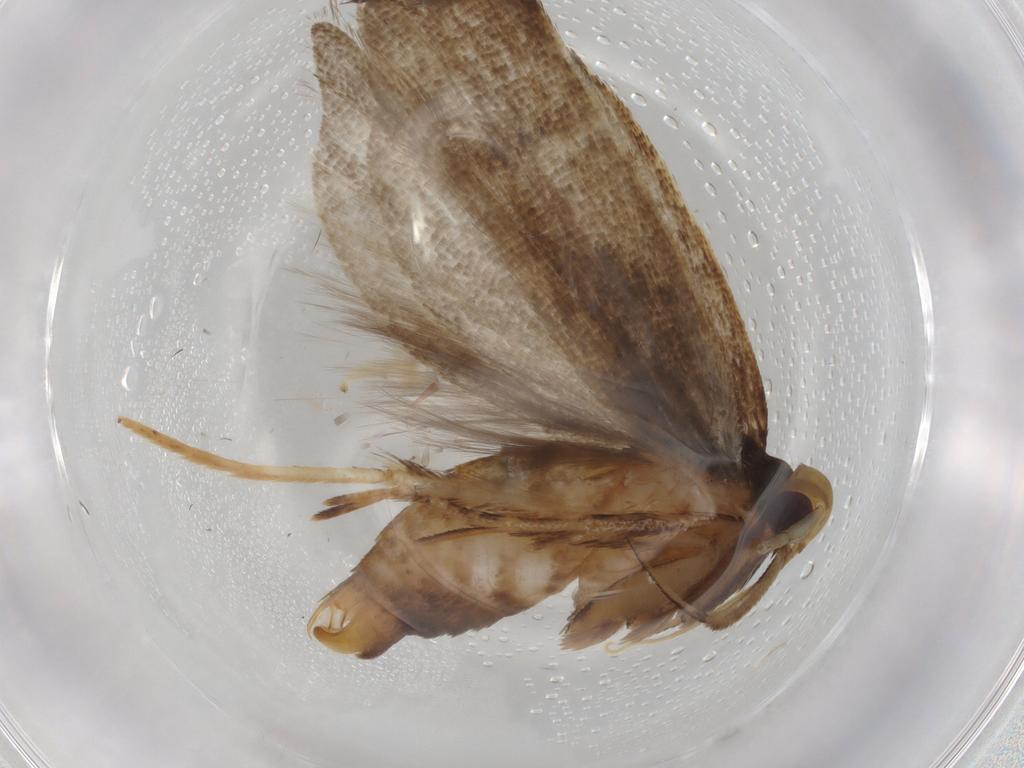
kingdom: Animalia
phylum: Arthropoda
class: Insecta
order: Lepidoptera
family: Lecithoceridae
